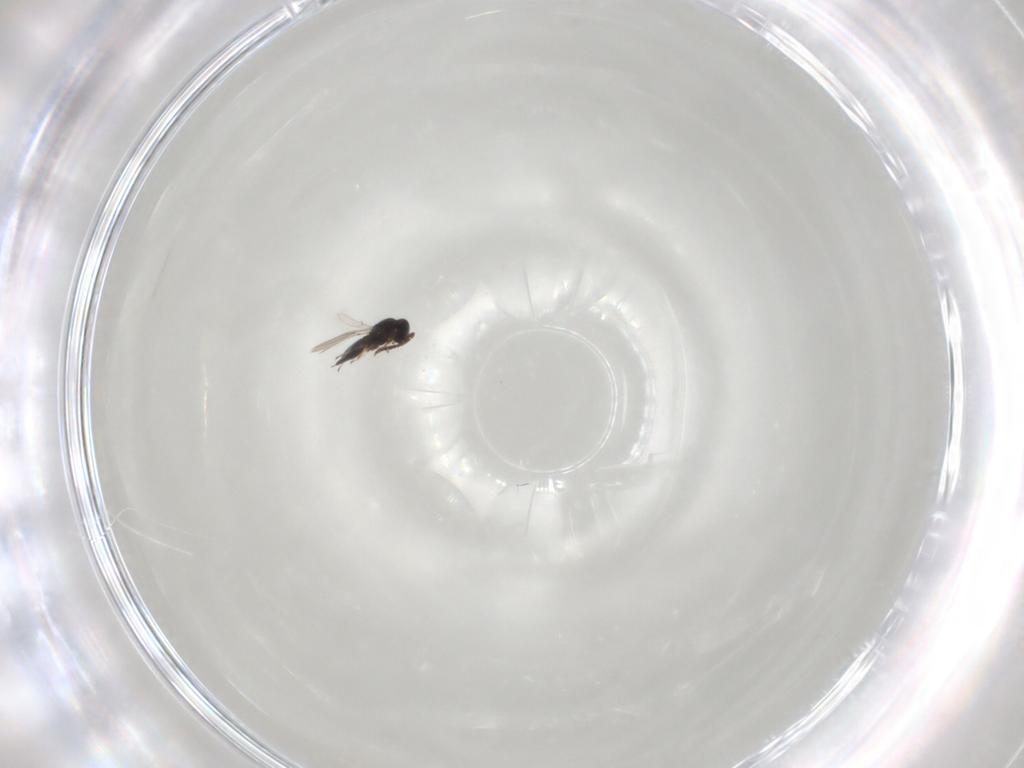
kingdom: Animalia
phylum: Arthropoda
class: Insecta
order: Hymenoptera
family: Scelionidae
